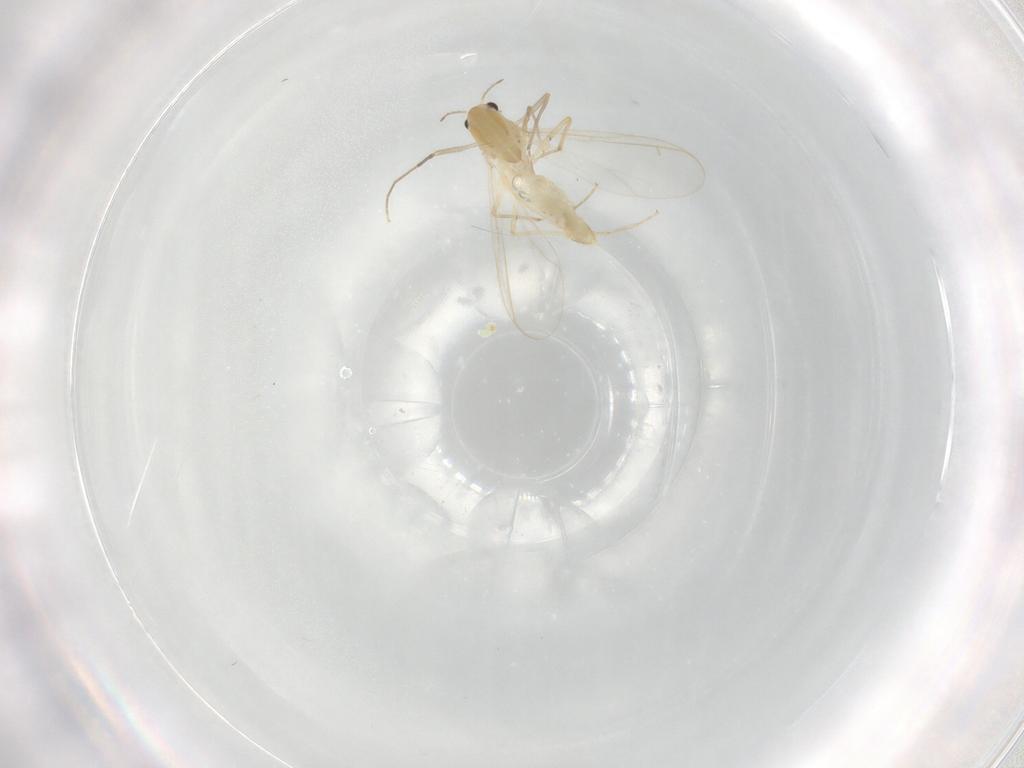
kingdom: Animalia
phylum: Arthropoda
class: Insecta
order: Diptera
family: Chironomidae
